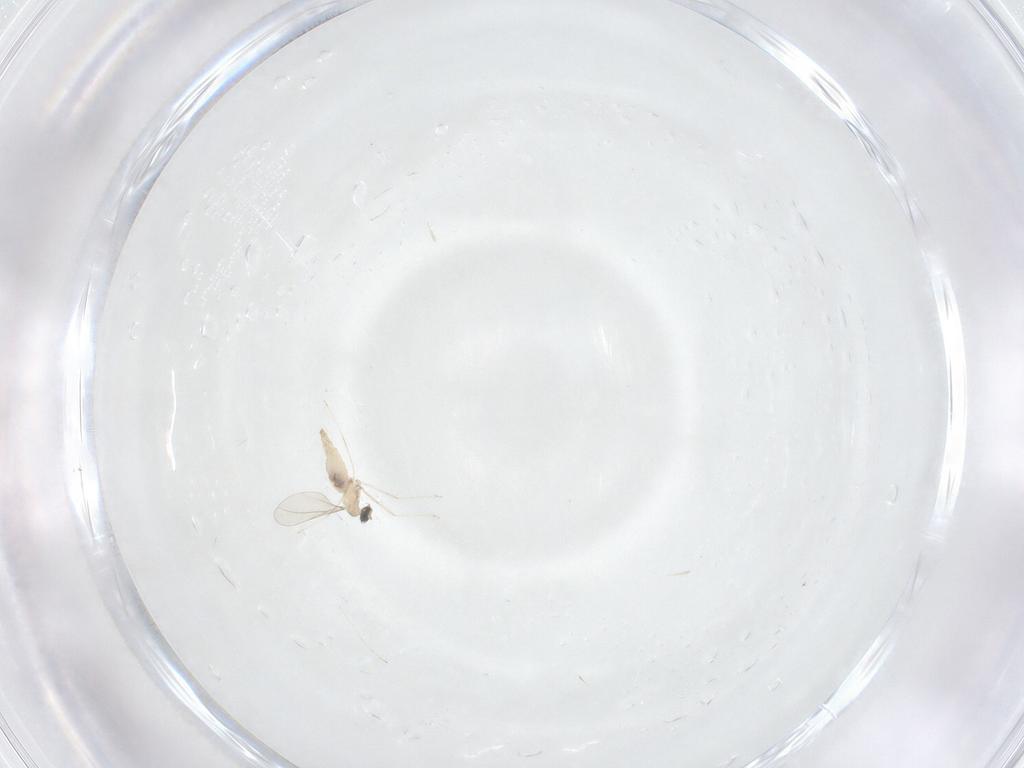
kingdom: Animalia
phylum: Arthropoda
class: Insecta
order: Diptera
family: Cecidomyiidae
